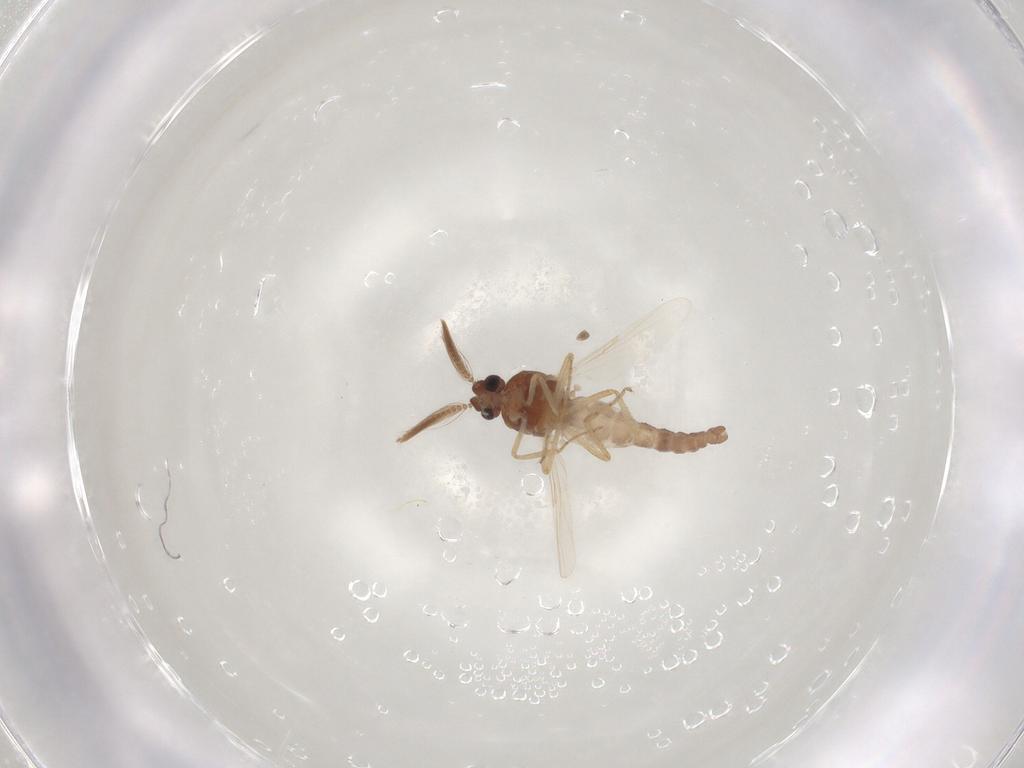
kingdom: Animalia
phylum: Arthropoda
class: Insecta
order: Diptera
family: Ceratopogonidae
